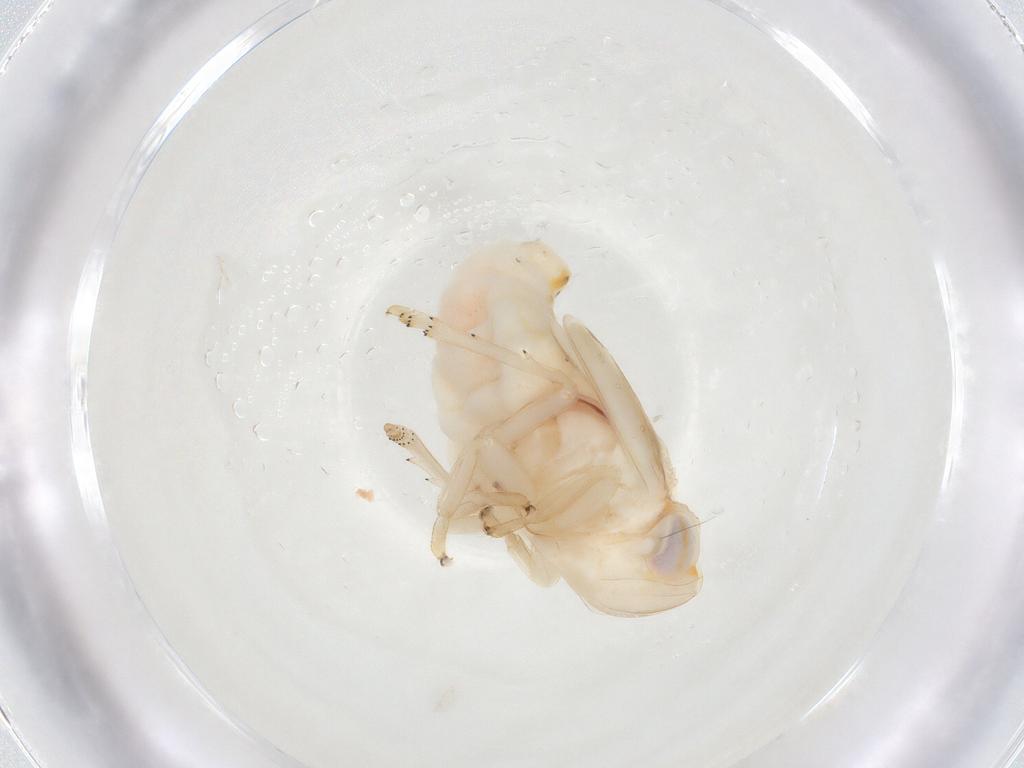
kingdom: Animalia
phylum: Arthropoda
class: Insecta
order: Hemiptera
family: Nogodinidae
